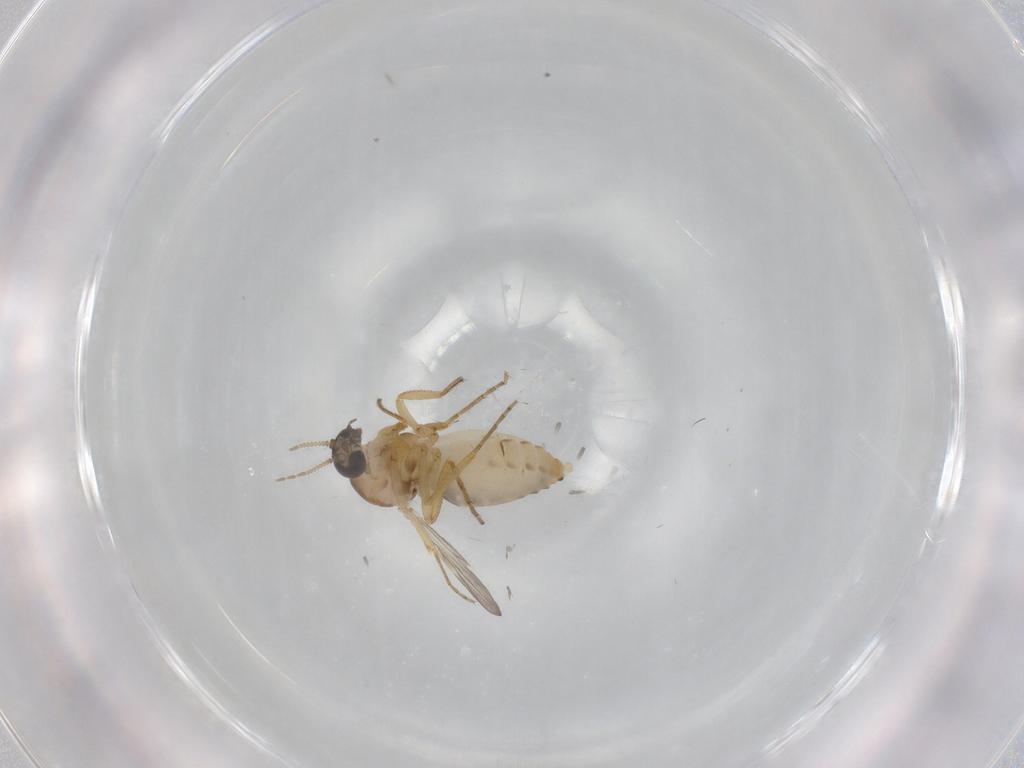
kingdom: Animalia
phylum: Arthropoda
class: Insecta
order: Diptera
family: Ceratopogonidae
